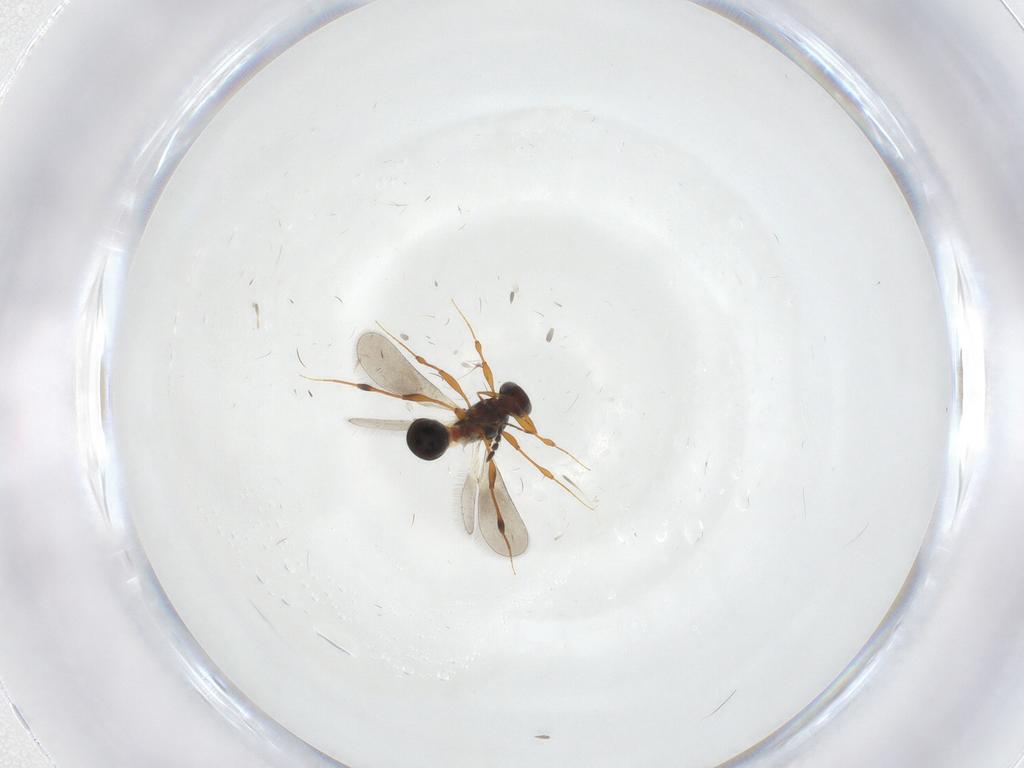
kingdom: Animalia
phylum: Arthropoda
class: Insecta
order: Hymenoptera
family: Platygastridae
